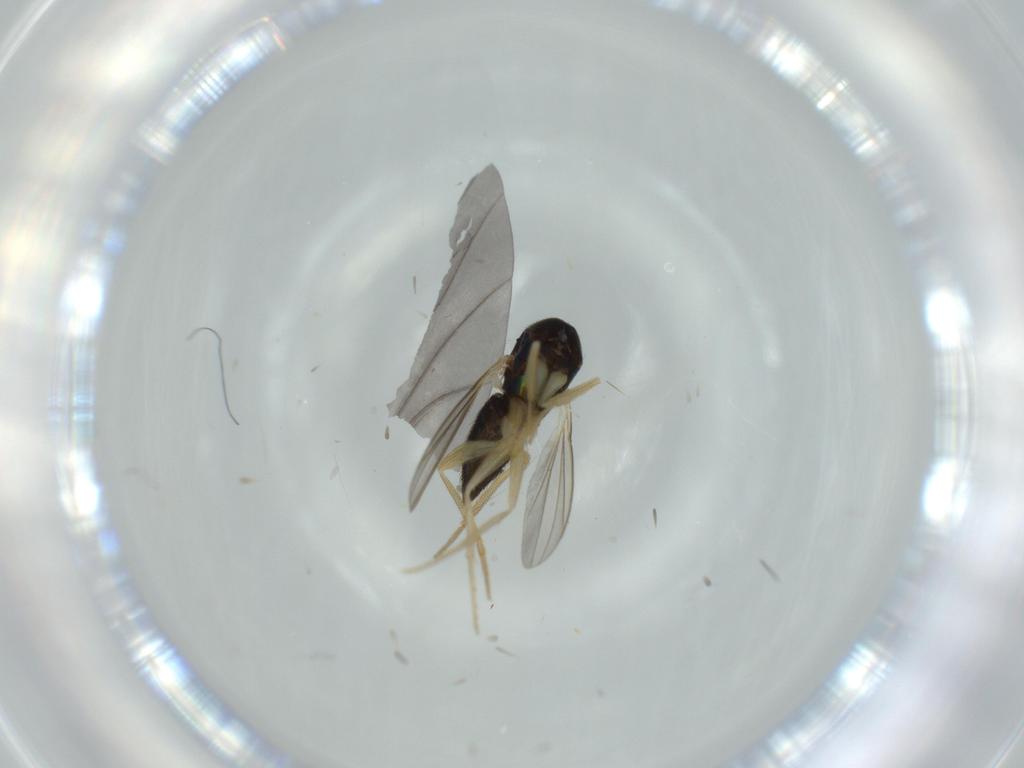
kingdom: Animalia
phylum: Arthropoda
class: Insecta
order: Diptera
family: Dolichopodidae
